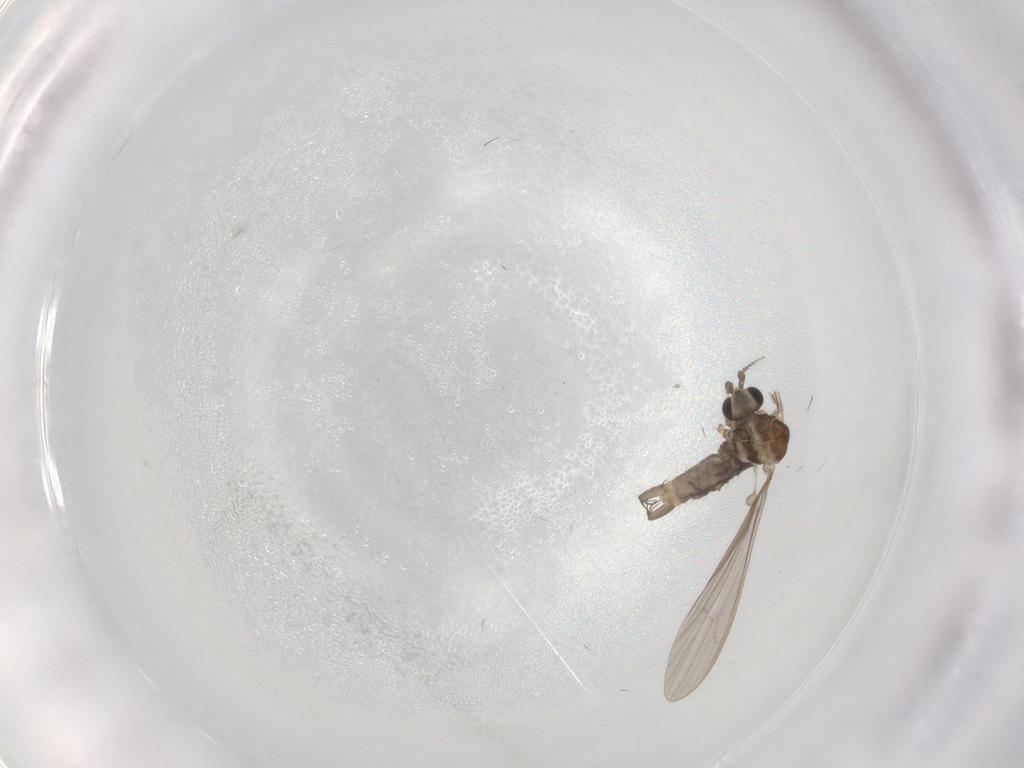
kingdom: Animalia
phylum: Arthropoda
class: Insecta
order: Diptera
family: Limoniidae
